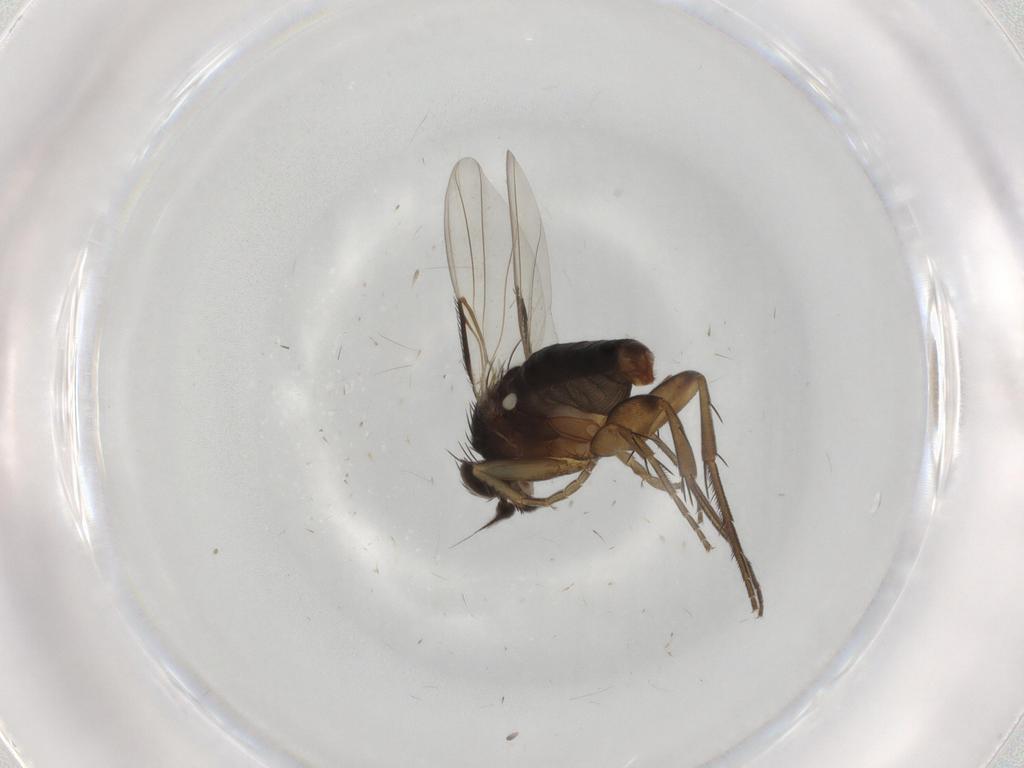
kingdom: Animalia
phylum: Arthropoda
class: Insecta
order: Diptera
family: Phoridae
